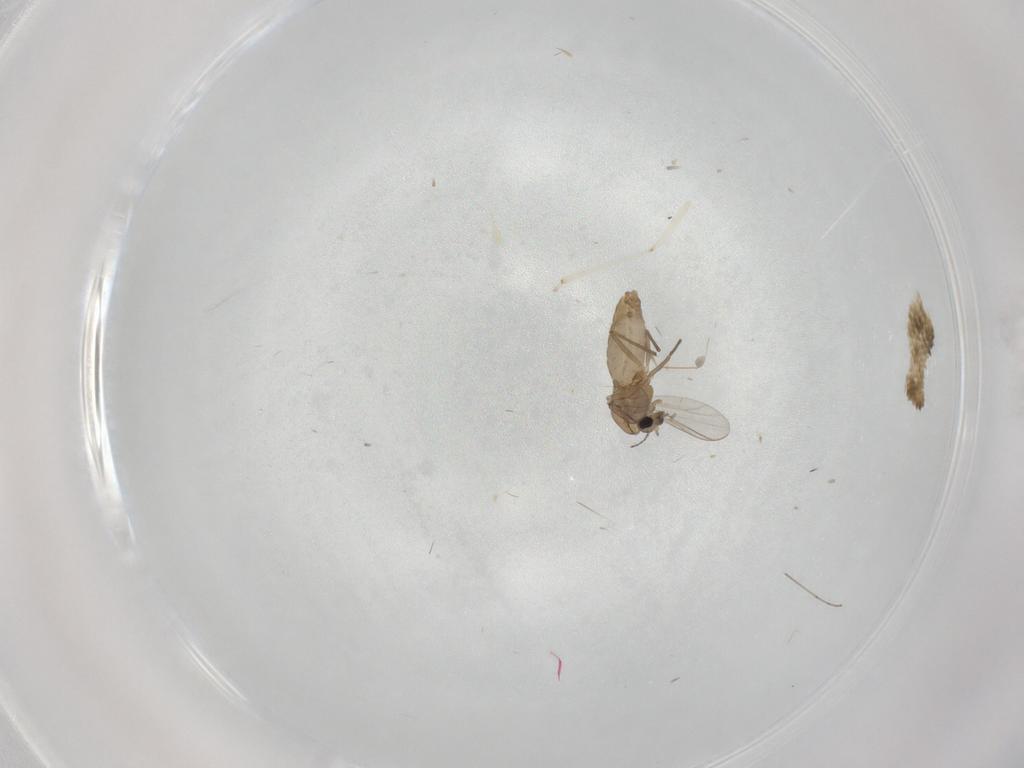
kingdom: Animalia
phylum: Arthropoda
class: Insecta
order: Diptera
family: Chironomidae
